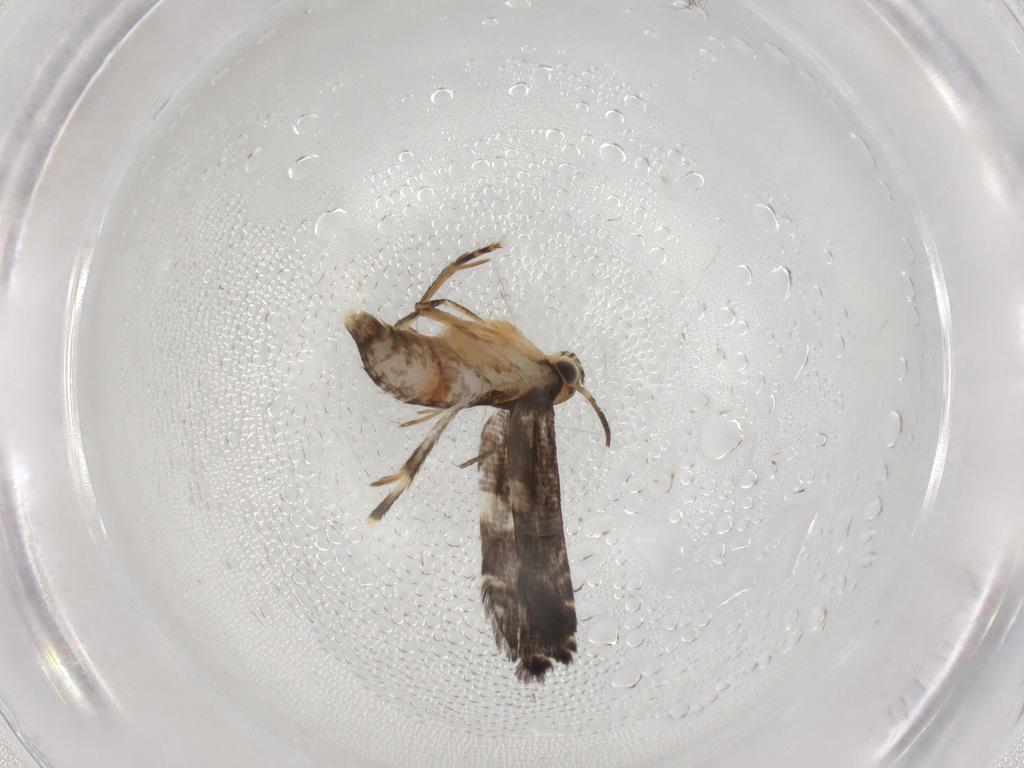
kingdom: Animalia
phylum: Arthropoda
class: Insecta
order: Lepidoptera
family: Glyphipterigidae
